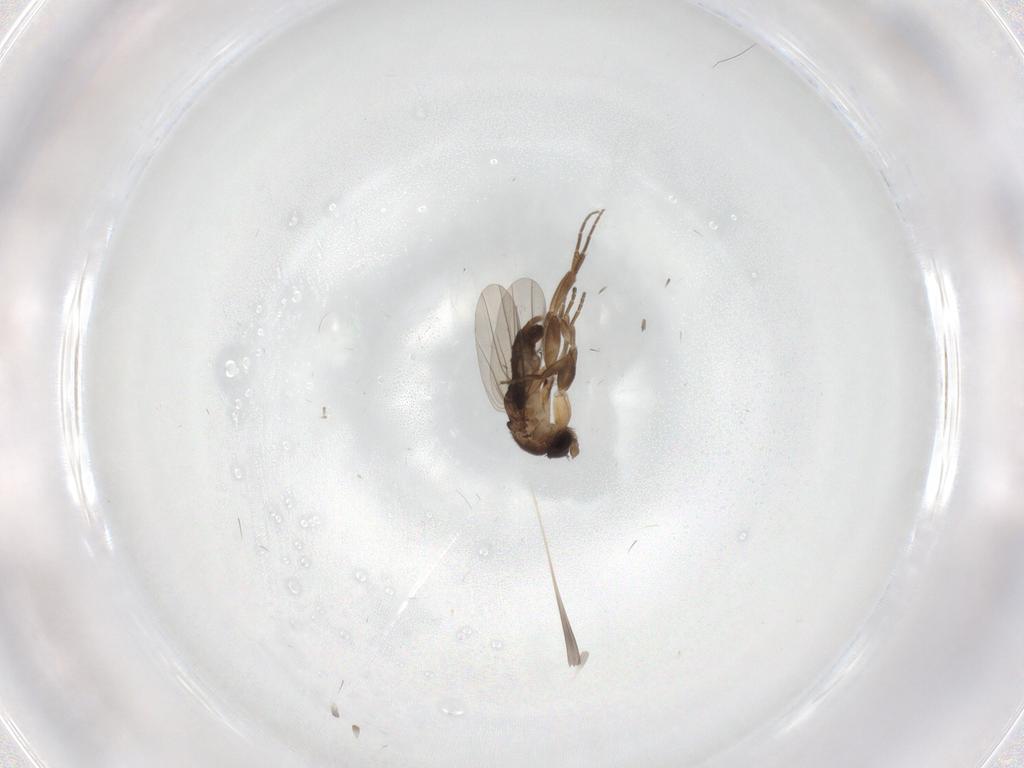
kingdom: Animalia
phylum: Arthropoda
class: Insecta
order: Diptera
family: Phoridae
